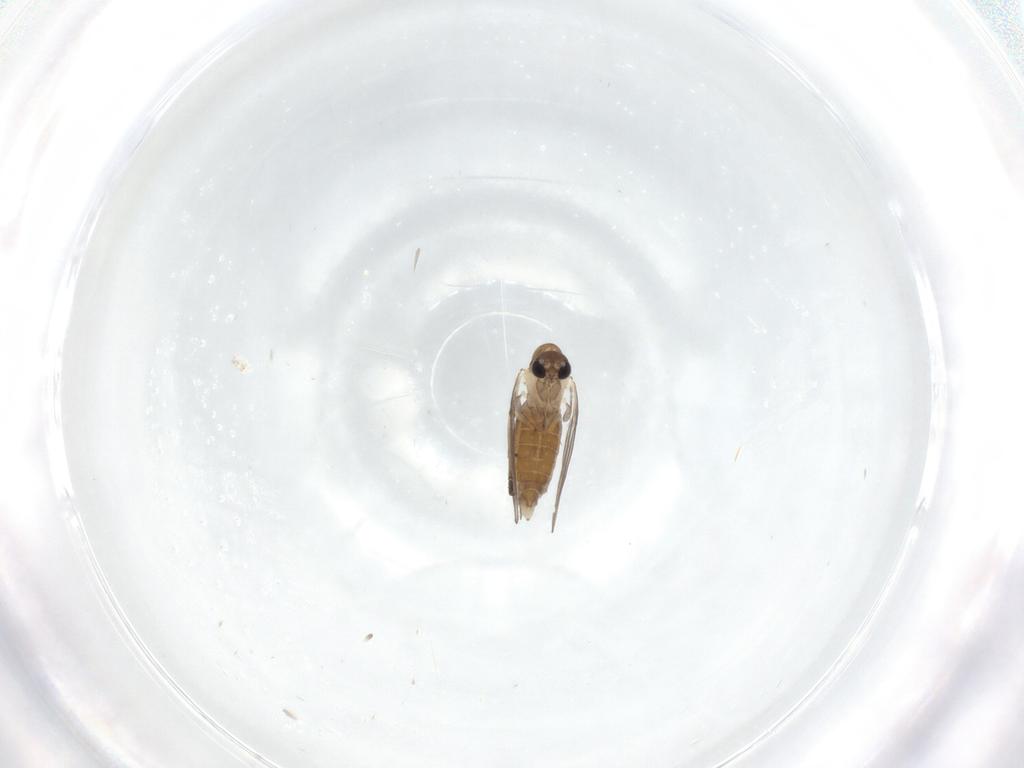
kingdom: Animalia
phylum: Arthropoda
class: Insecta
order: Diptera
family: Psychodidae
